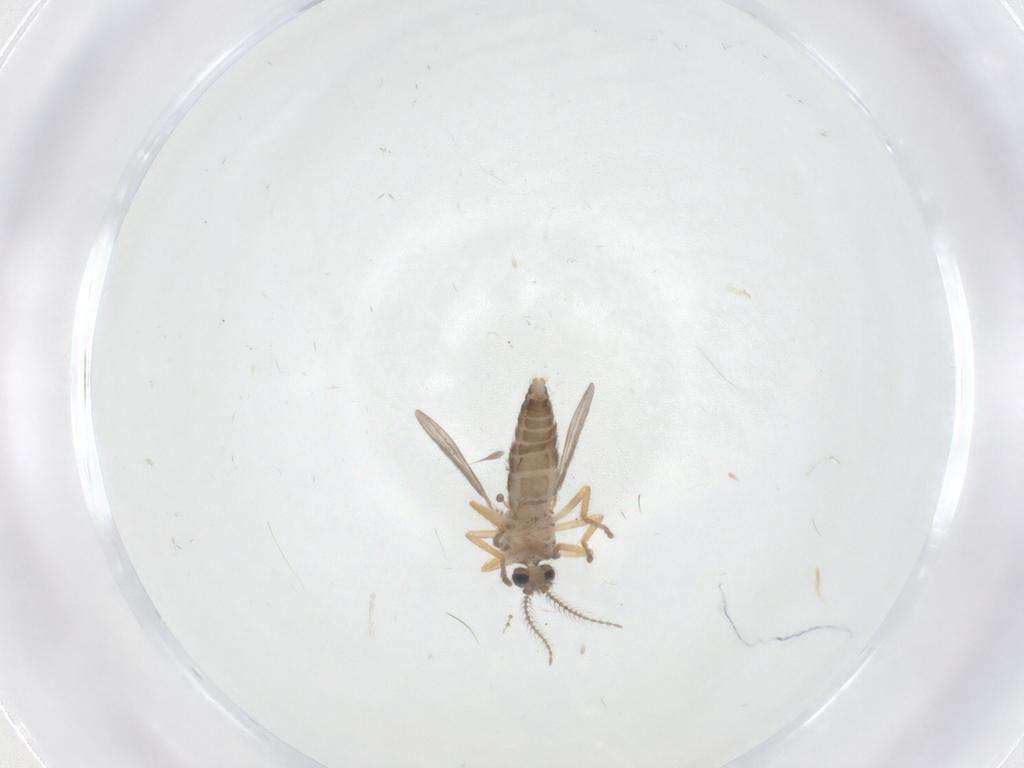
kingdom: Animalia
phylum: Arthropoda
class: Insecta
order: Diptera
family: Ceratopogonidae
